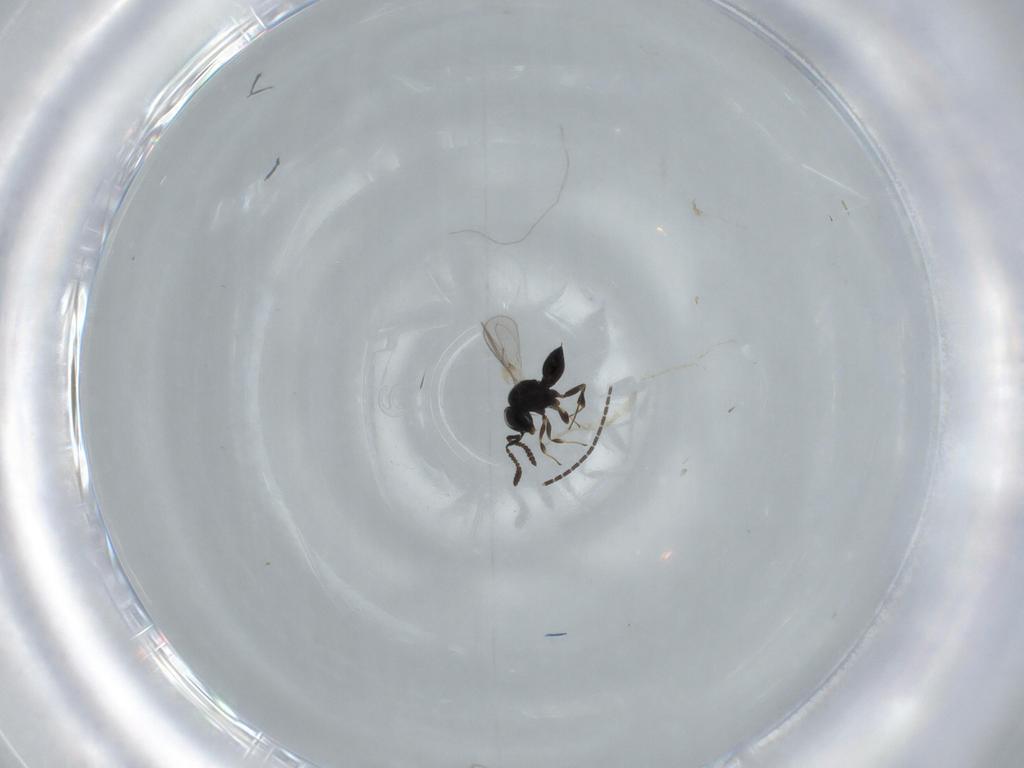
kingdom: Animalia
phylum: Arthropoda
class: Insecta
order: Hymenoptera
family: Scelionidae
